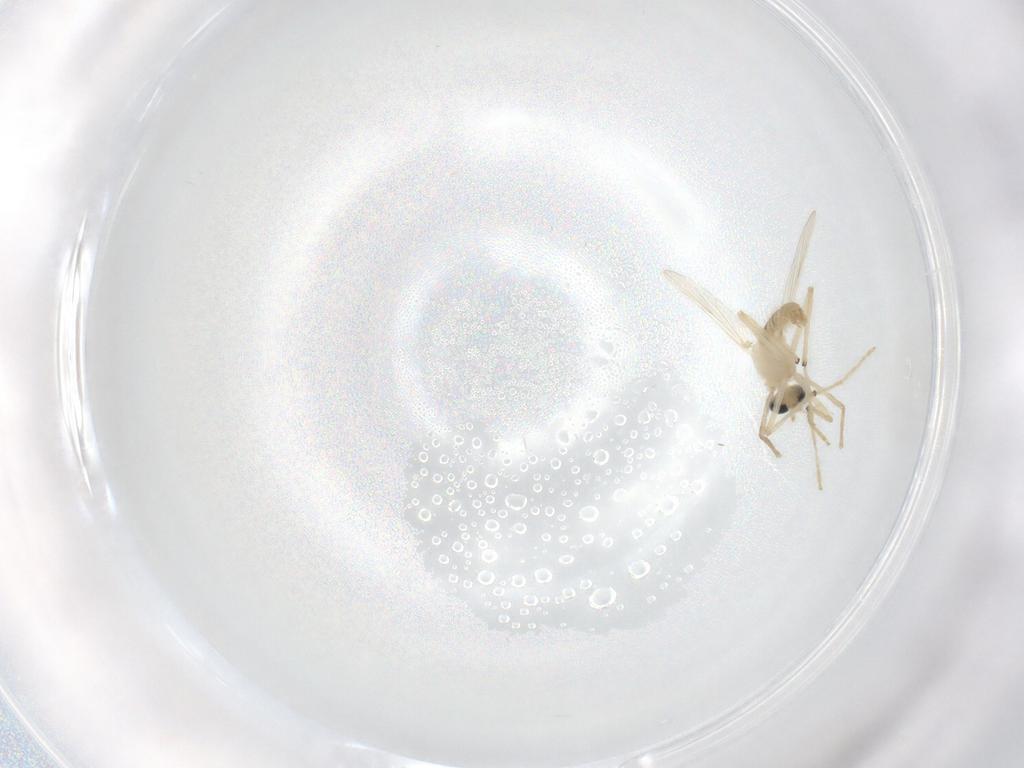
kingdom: Animalia
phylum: Arthropoda
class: Insecta
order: Diptera
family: Chironomidae
